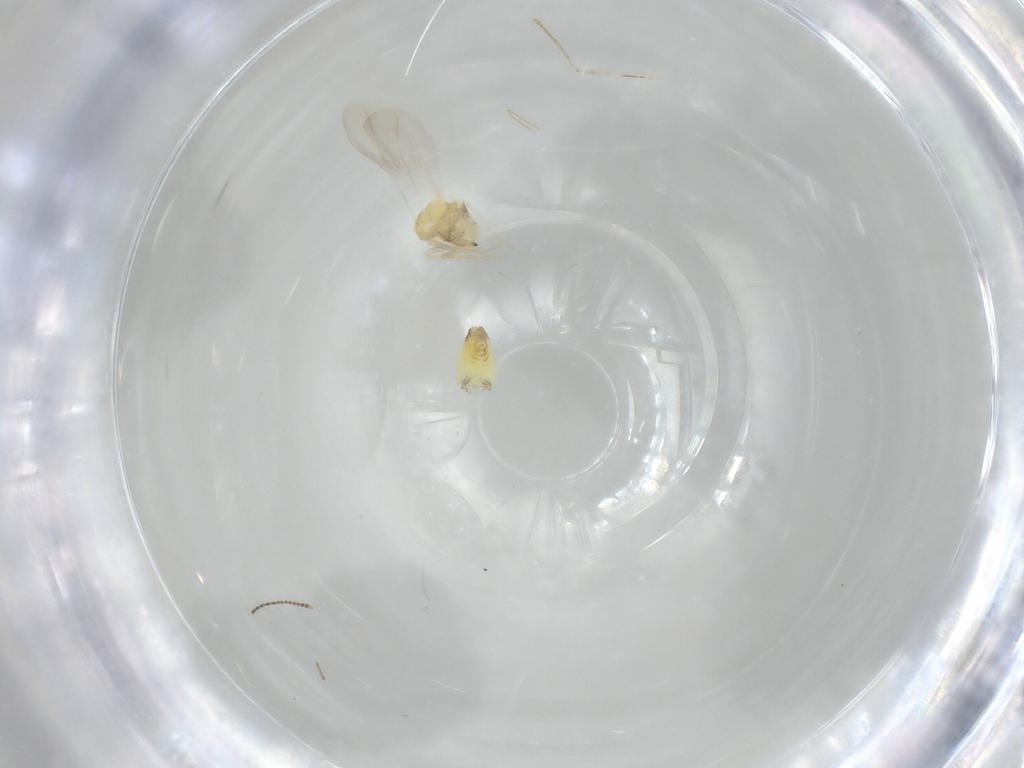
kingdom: Animalia
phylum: Arthropoda
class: Insecta
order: Hemiptera
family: Aleyrodidae
